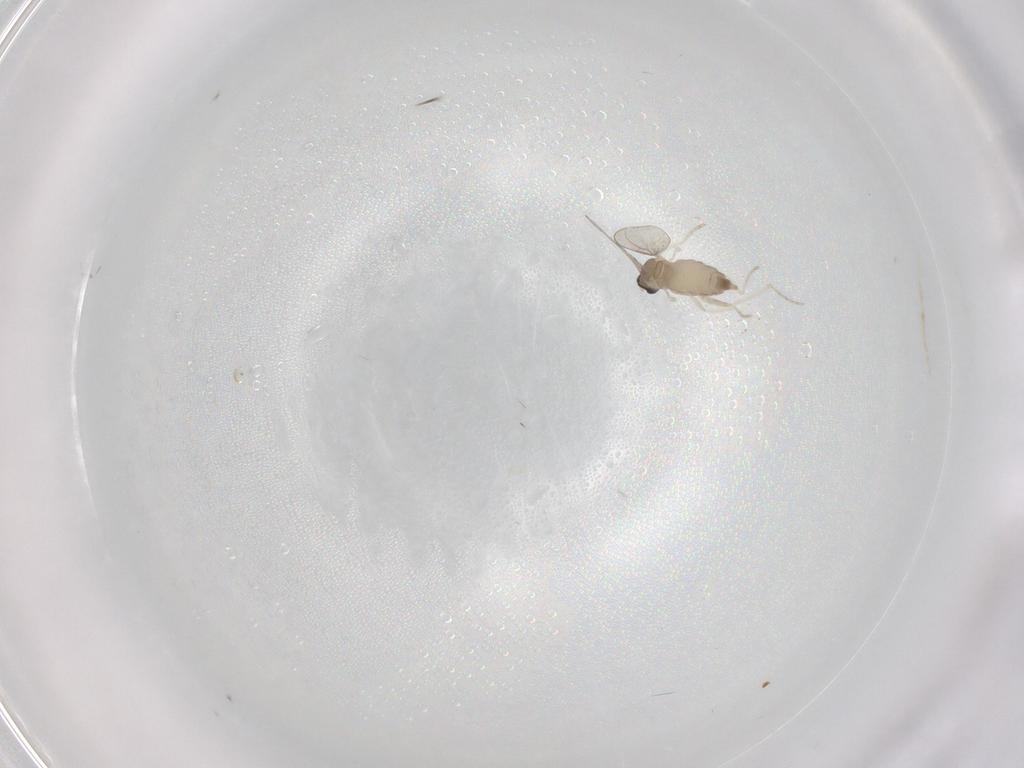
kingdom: Animalia
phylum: Arthropoda
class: Insecta
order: Diptera
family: Cecidomyiidae
